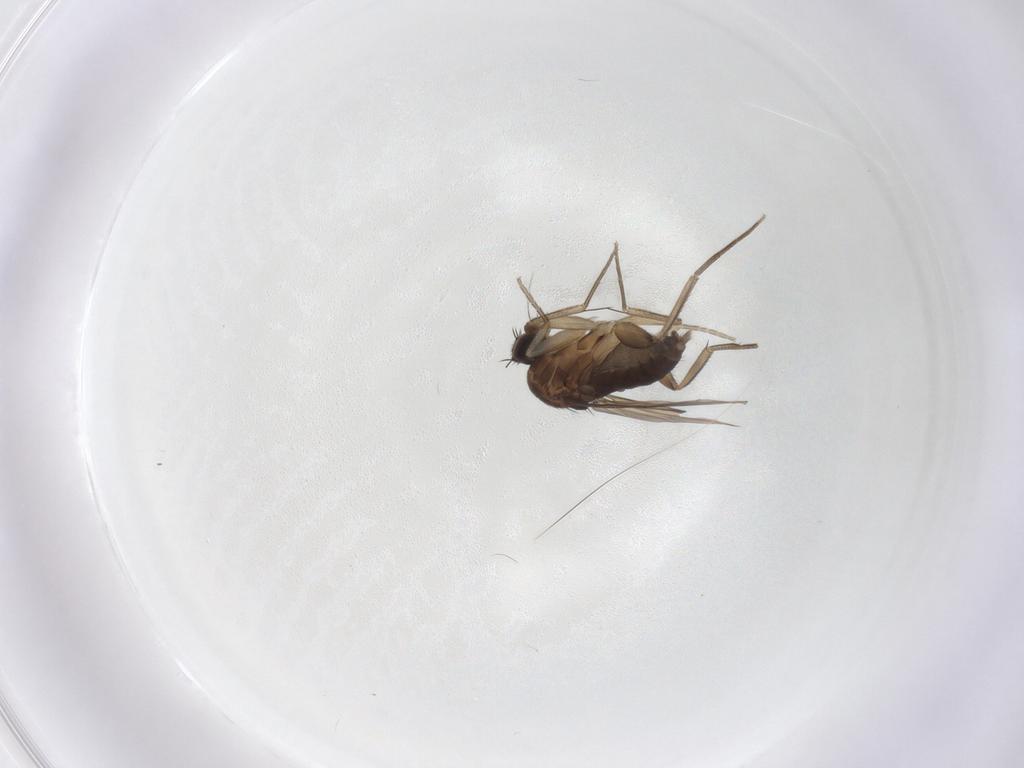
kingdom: Animalia
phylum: Arthropoda
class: Insecta
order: Diptera
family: Phoridae
